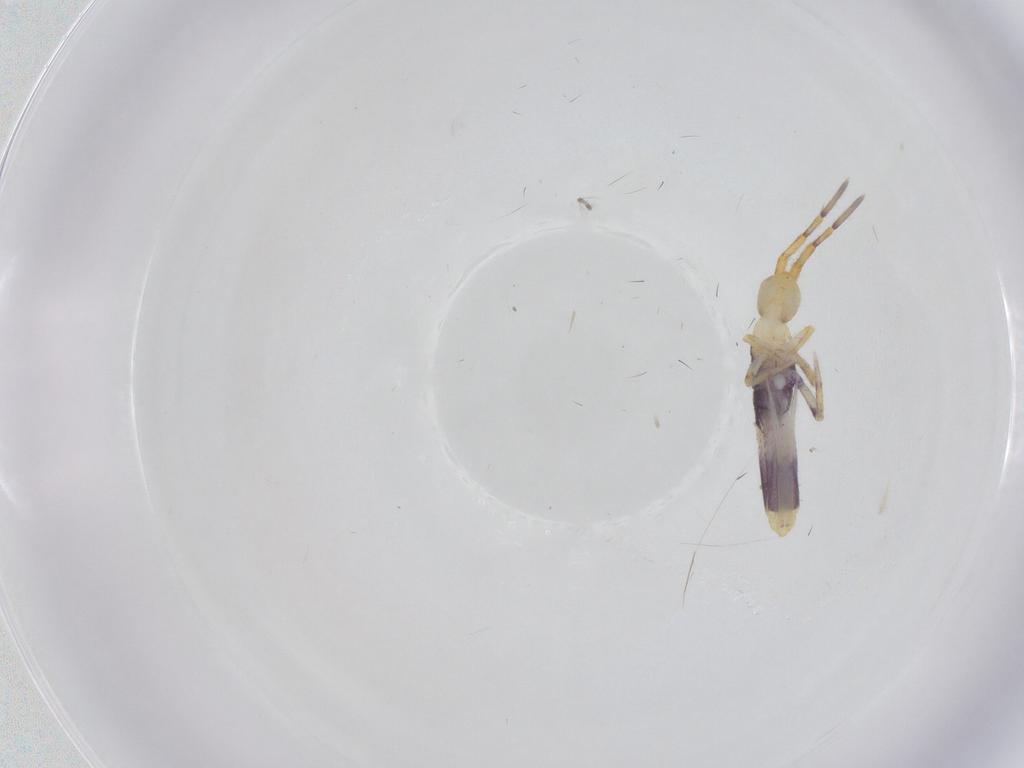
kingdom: Animalia
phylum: Arthropoda
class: Collembola
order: Entomobryomorpha
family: Entomobryidae
